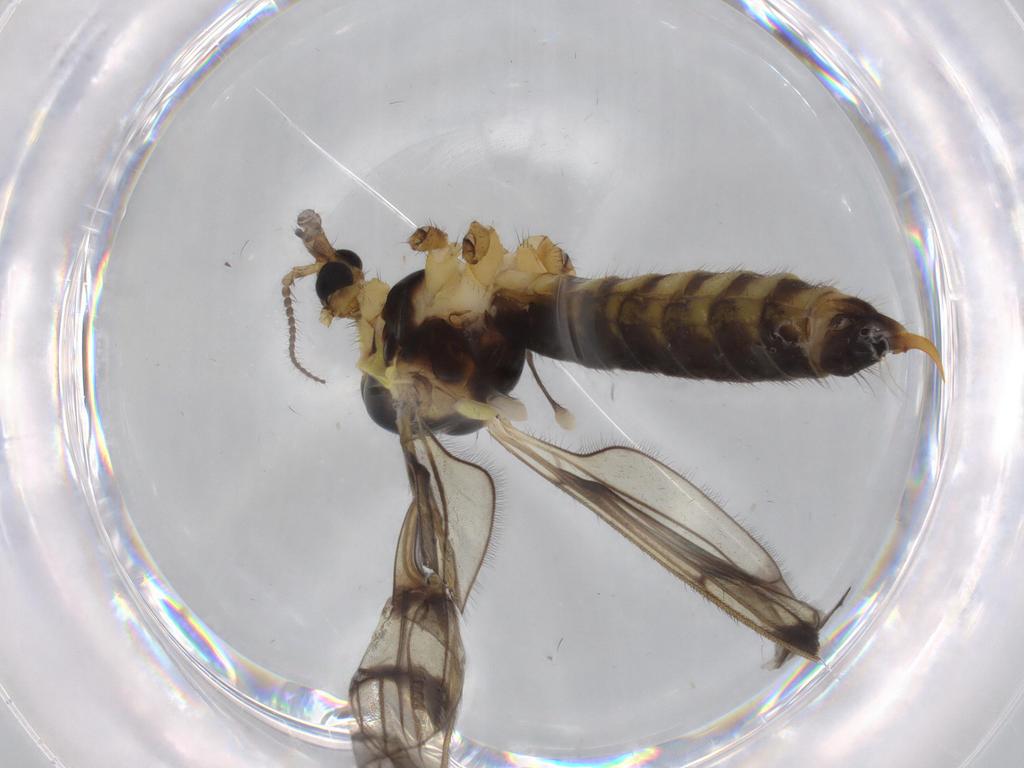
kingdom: Animalia
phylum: Arthropoda
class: Insecta
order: Diptera
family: Limoniidae
